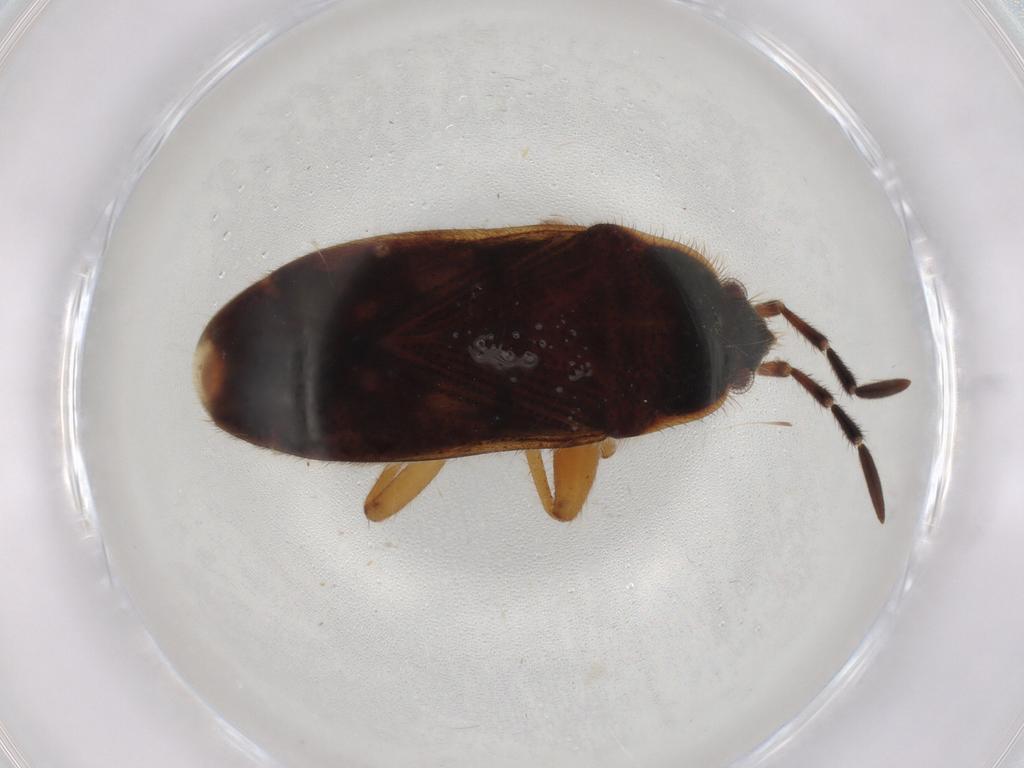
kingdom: Animalia
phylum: Arthropoda
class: Insecta
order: Hemiptera
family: Rhyparochromidae
